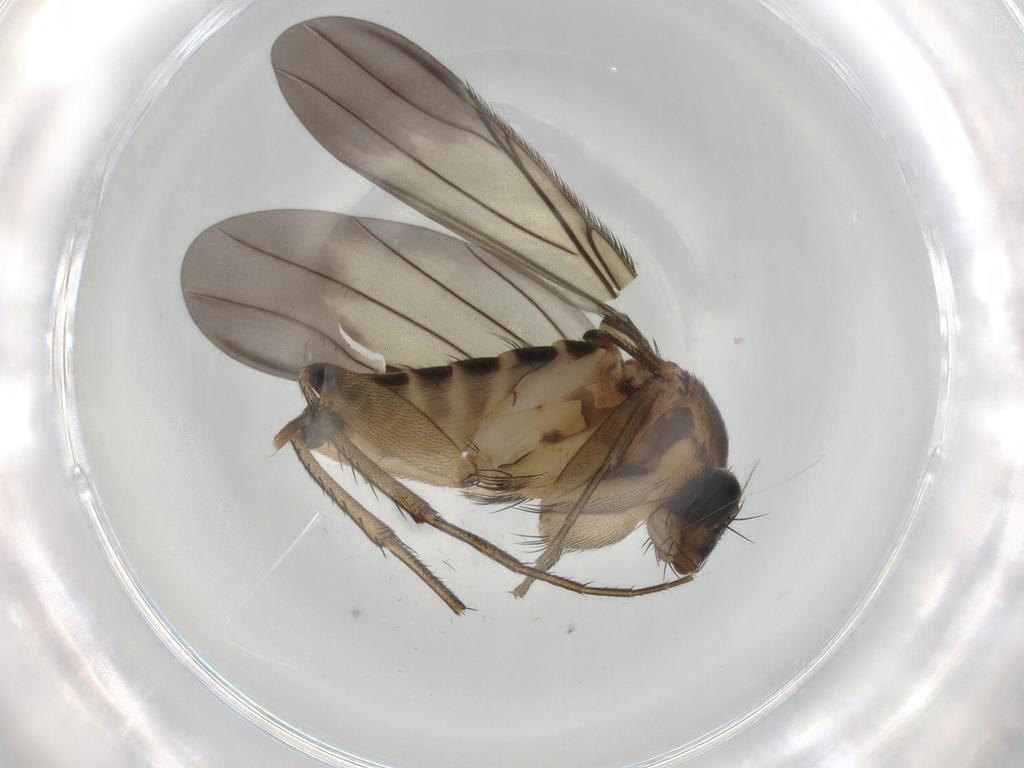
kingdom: Animalia
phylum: Arthropoda
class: Insecta
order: Diptera
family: Phoridae
